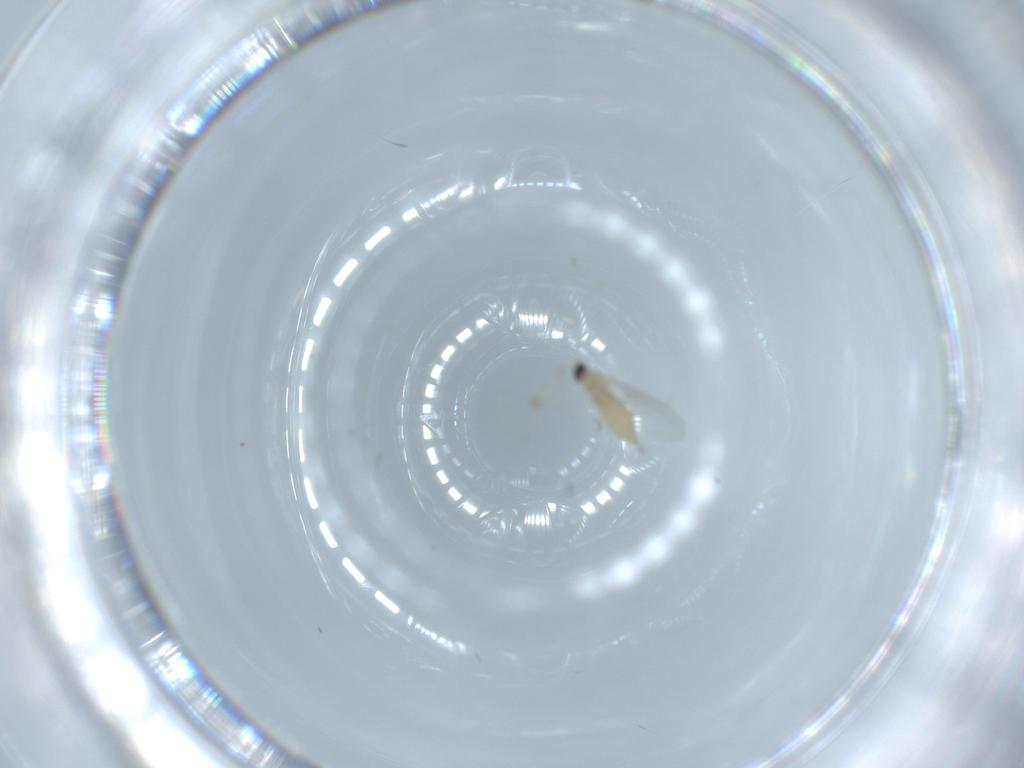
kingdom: Animalia
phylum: Arthropoda
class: Insecta
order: Diptera
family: Cecidomyiidae
